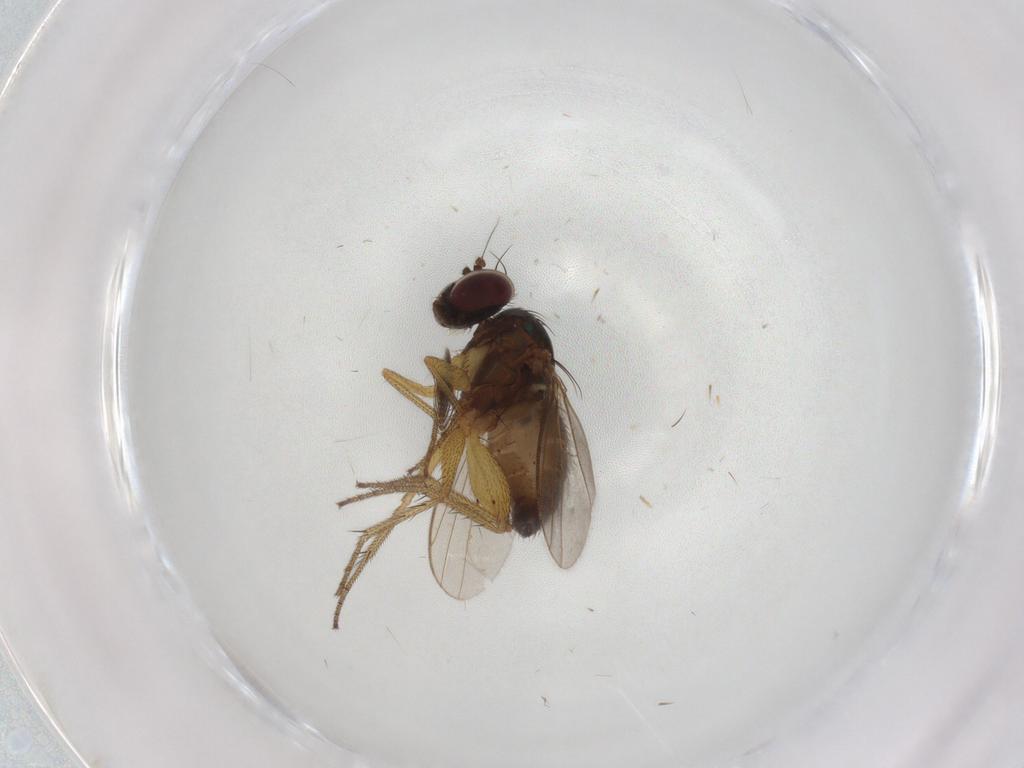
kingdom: Animalia
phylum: Arthropoda
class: Insecta
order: Diptera
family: Dolichopodidae
